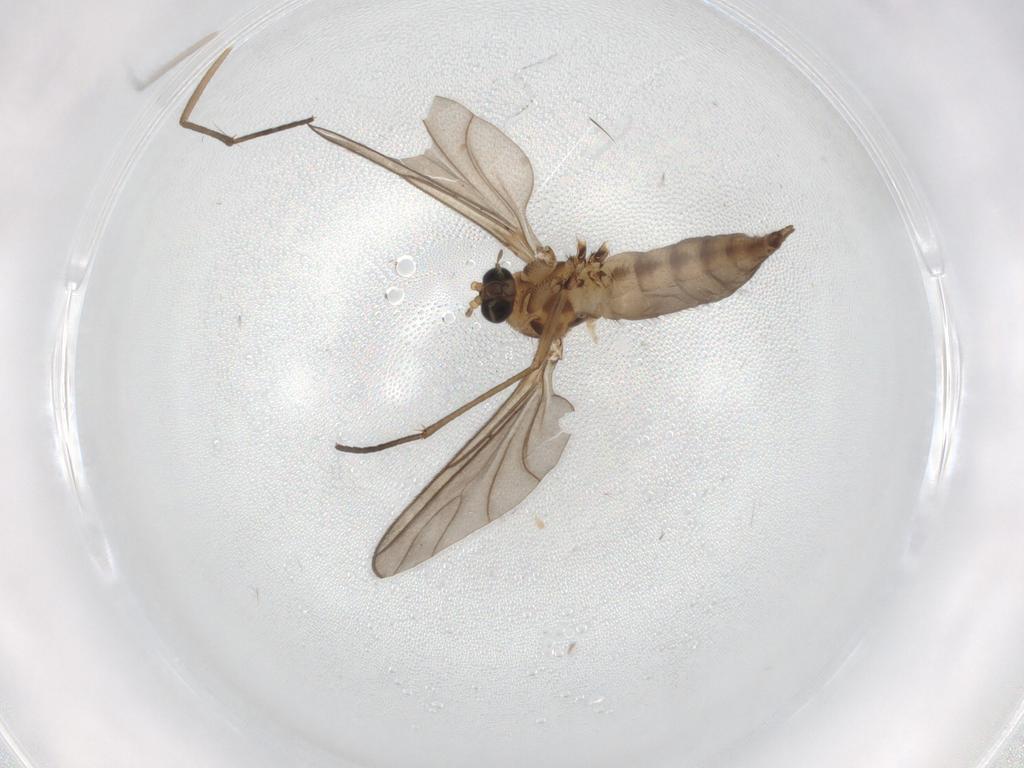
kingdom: Animalia
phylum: Arthropoda
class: Insecta
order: Diptera
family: Sciaridae
